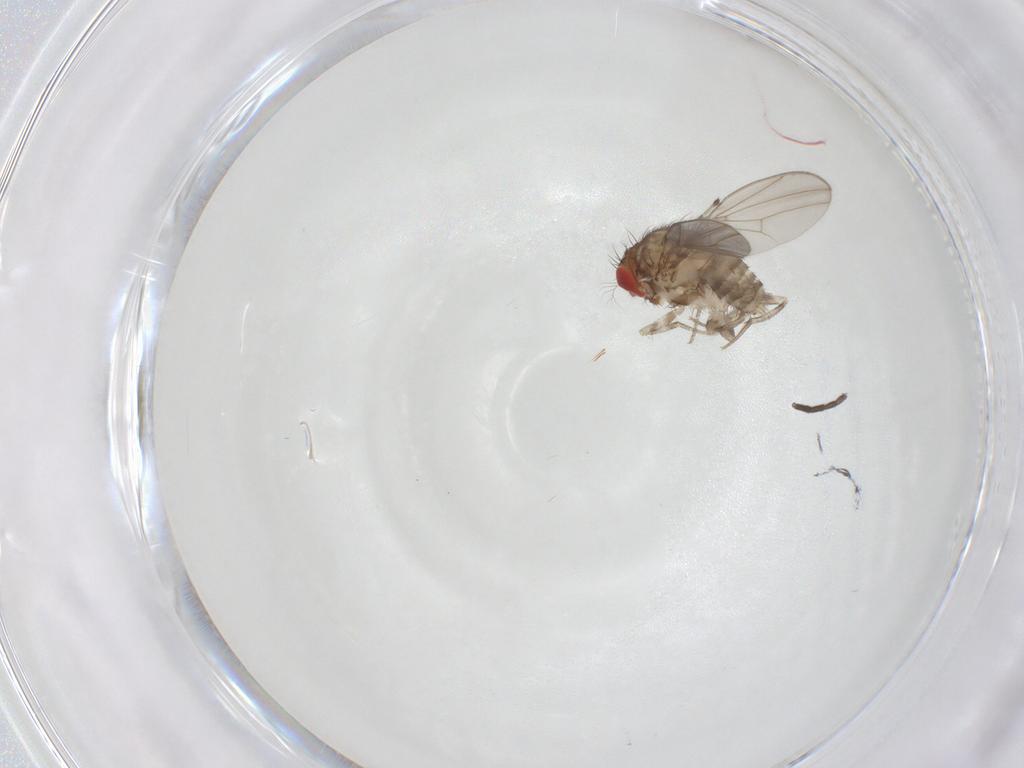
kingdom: Animalia
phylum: Arthropoda
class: Insecta
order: Diptera
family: Drosophilidae
